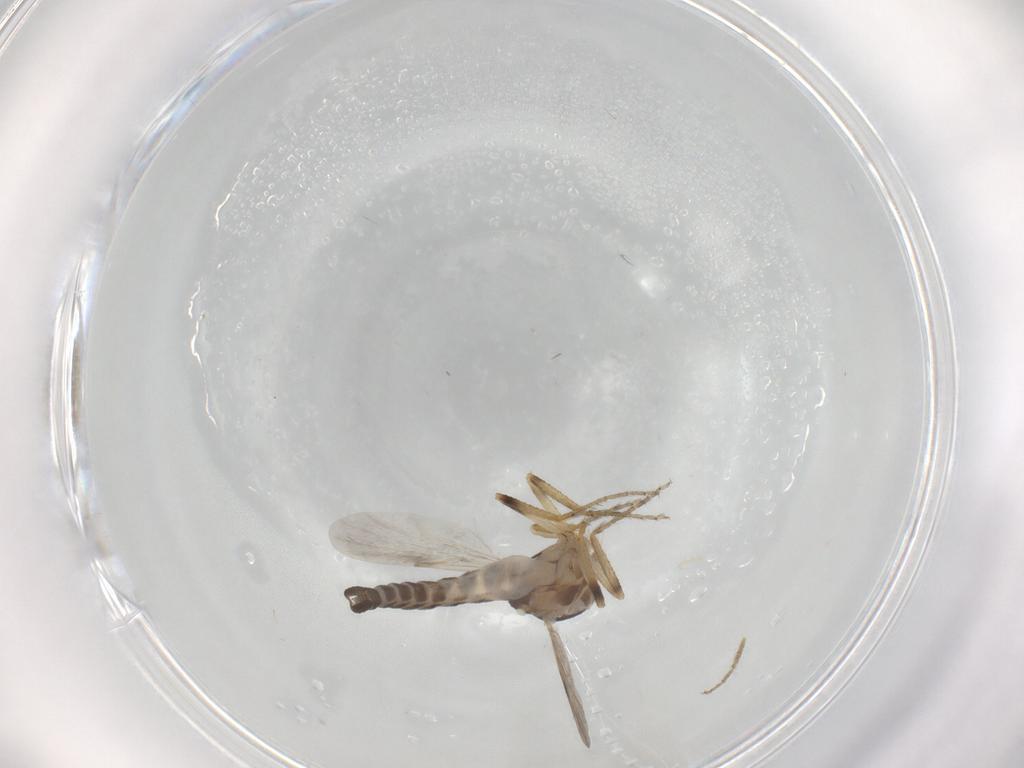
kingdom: Animalia
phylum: Arthropoda
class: Insecta
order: Diptera
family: Ceratopogonidae
